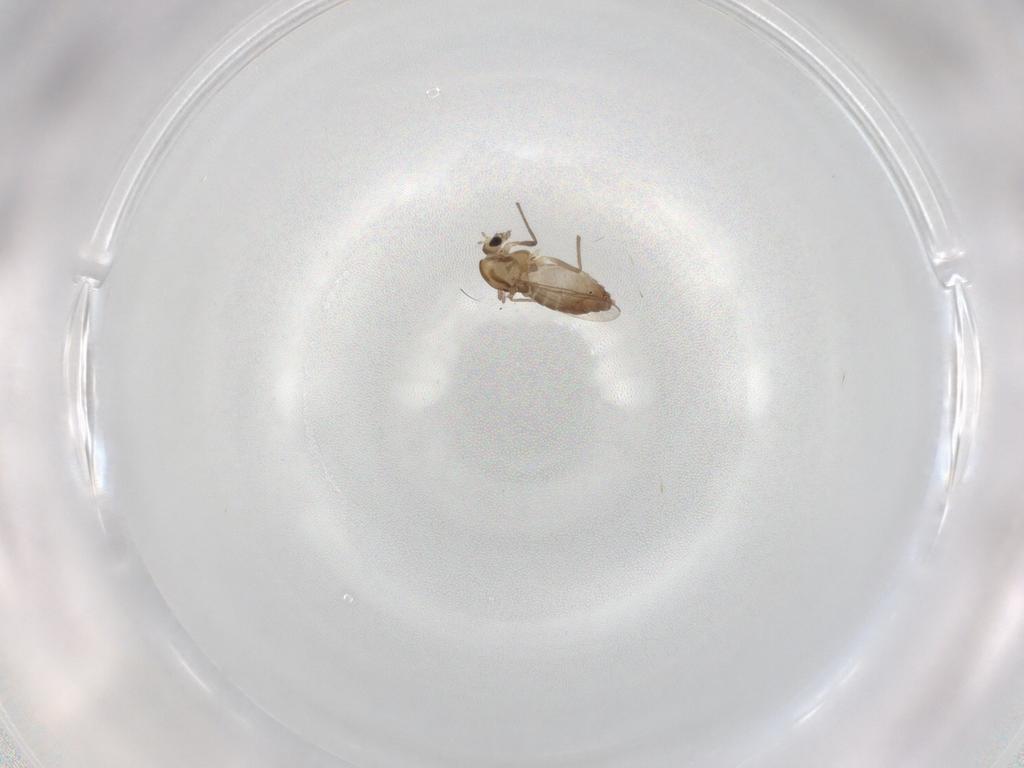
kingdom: Animalia
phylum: Arthropoda
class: Insecta
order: Diptera
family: Chironomidae
